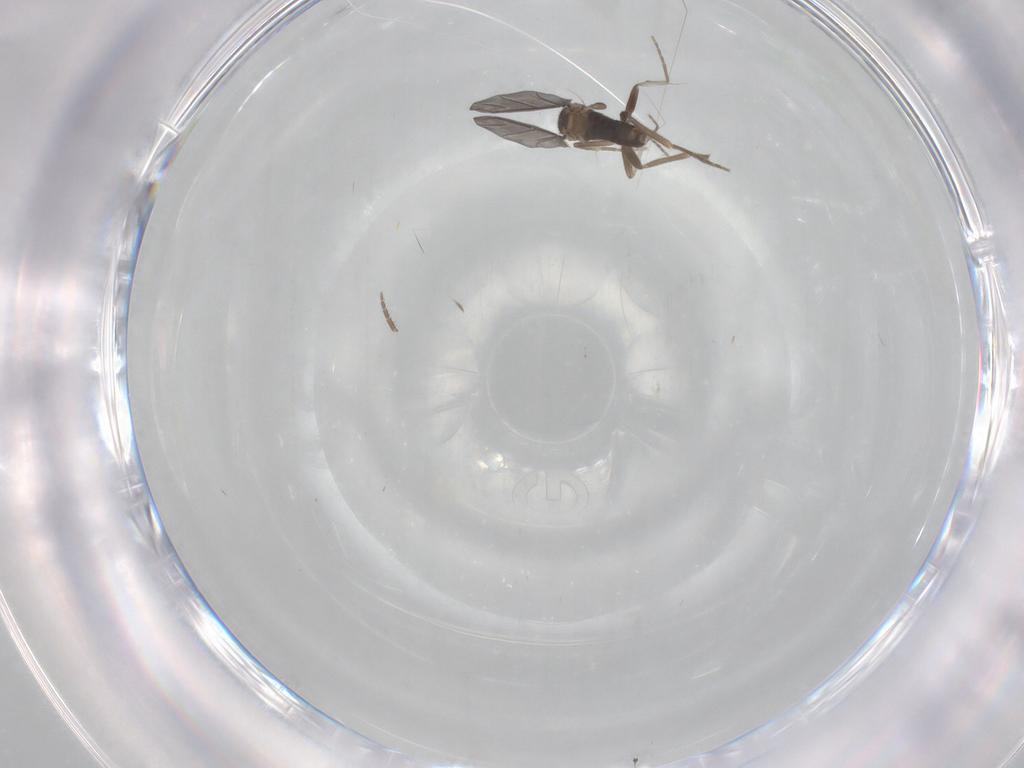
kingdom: Animalia
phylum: Arthropoda
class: Insecta
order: Diptera
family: Phoridae
